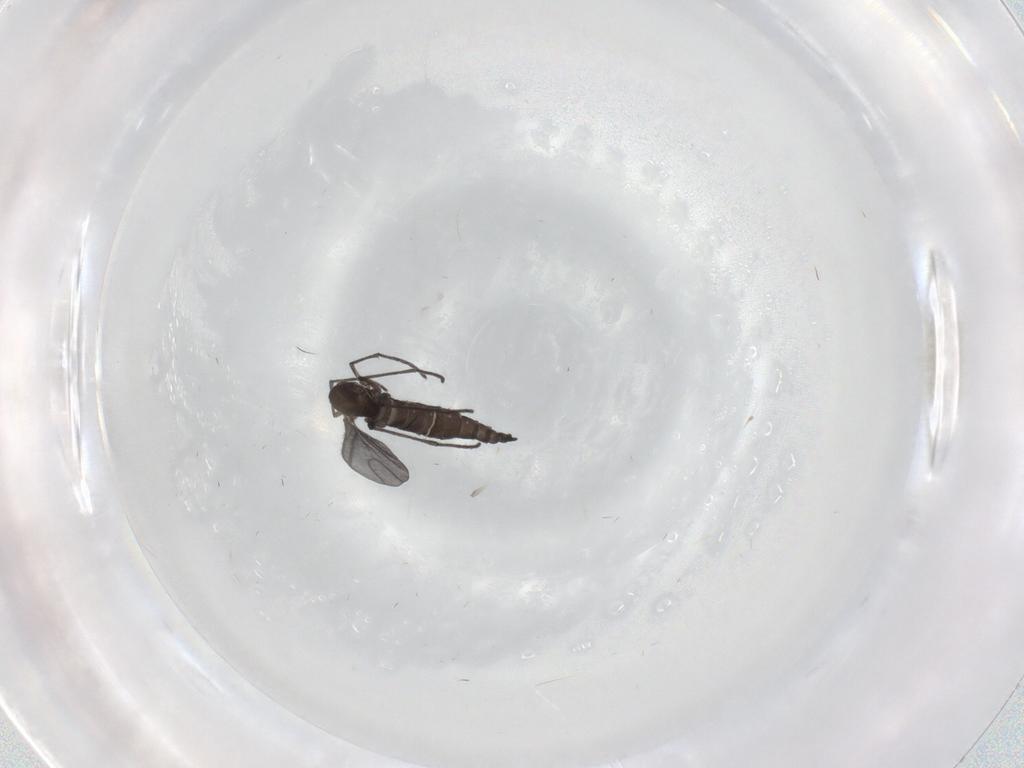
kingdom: Animalia
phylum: Arthropoda
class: Insecta
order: Diptera
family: Sciaridae
